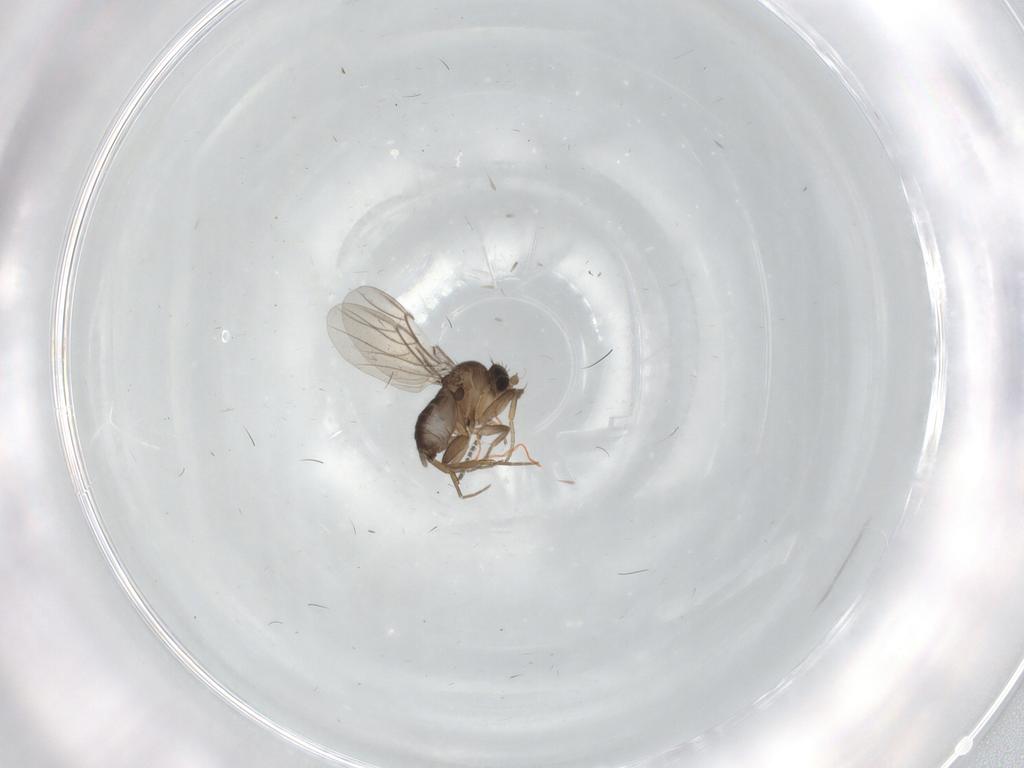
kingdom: Animalia
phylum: Arthropoda
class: Insecta
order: Diptera
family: Phoridae
